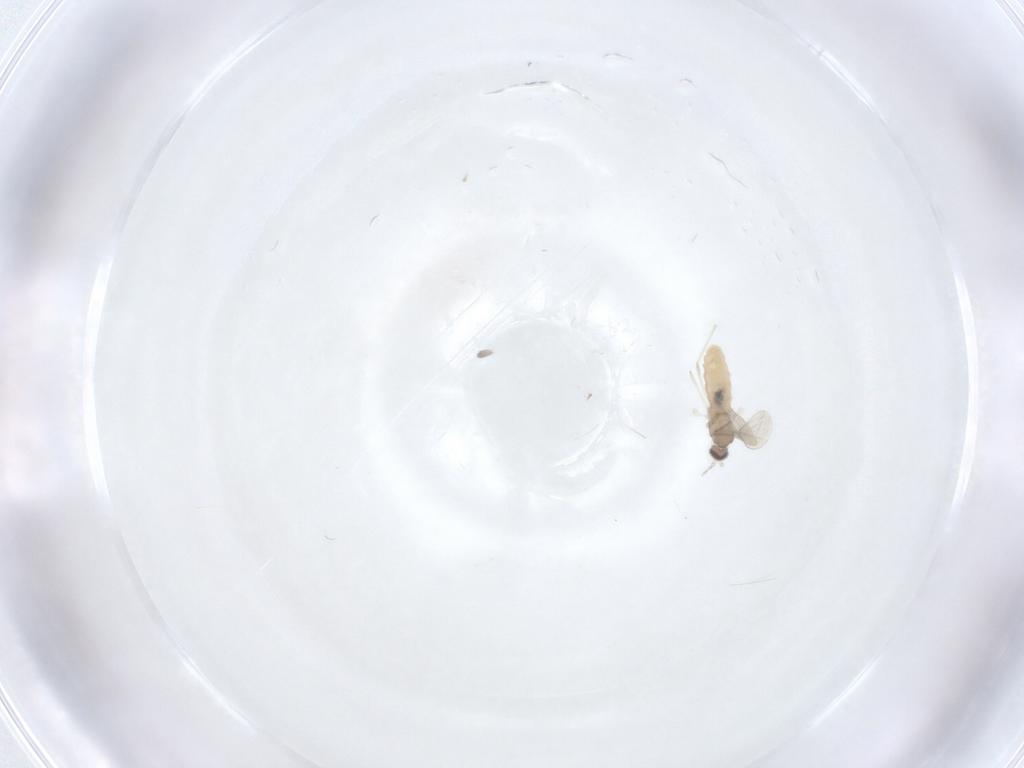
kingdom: Animalia
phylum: Arthropoda
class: Insecta
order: Diptera
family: Cecidomyiidae
